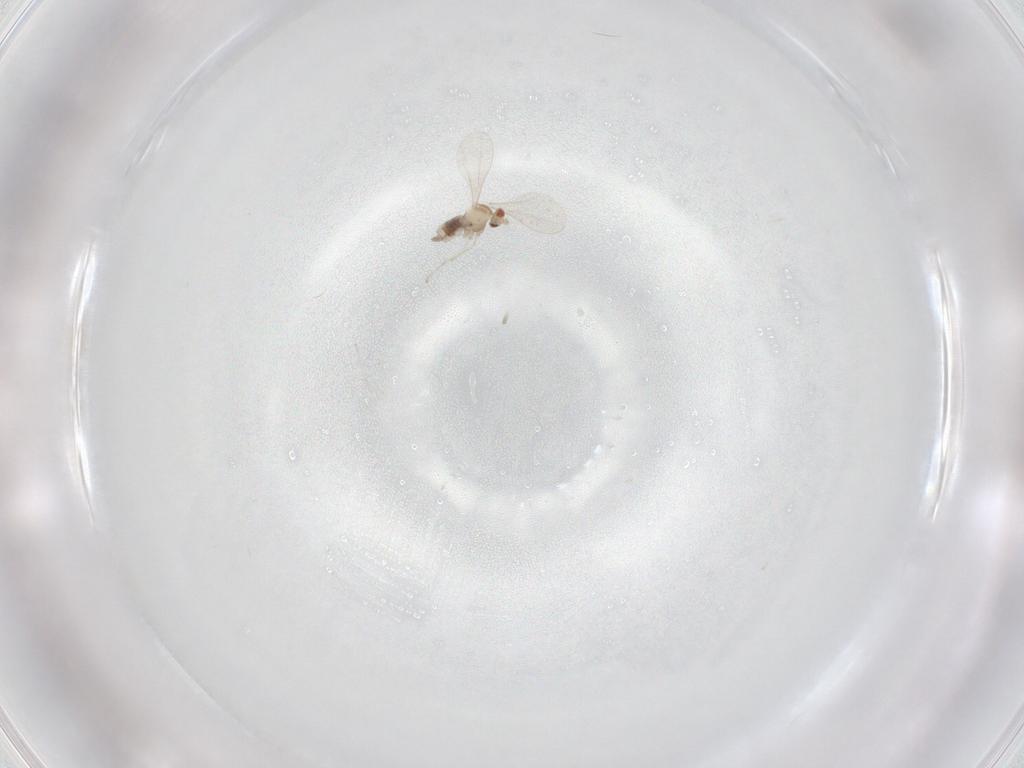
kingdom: Animalia
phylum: Arthropoda
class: Insecta
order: Diptera
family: Cecidomyiidae
